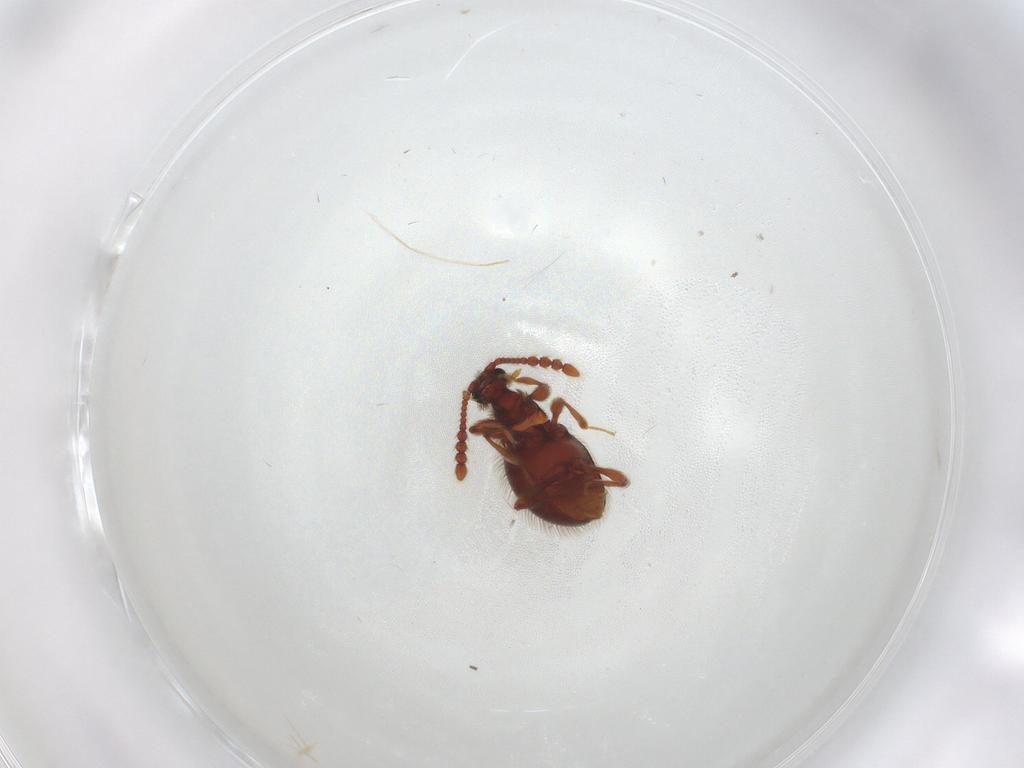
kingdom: Animalia
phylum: Arthropoda
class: Insecta
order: Coleoptera
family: Staphylinidae
